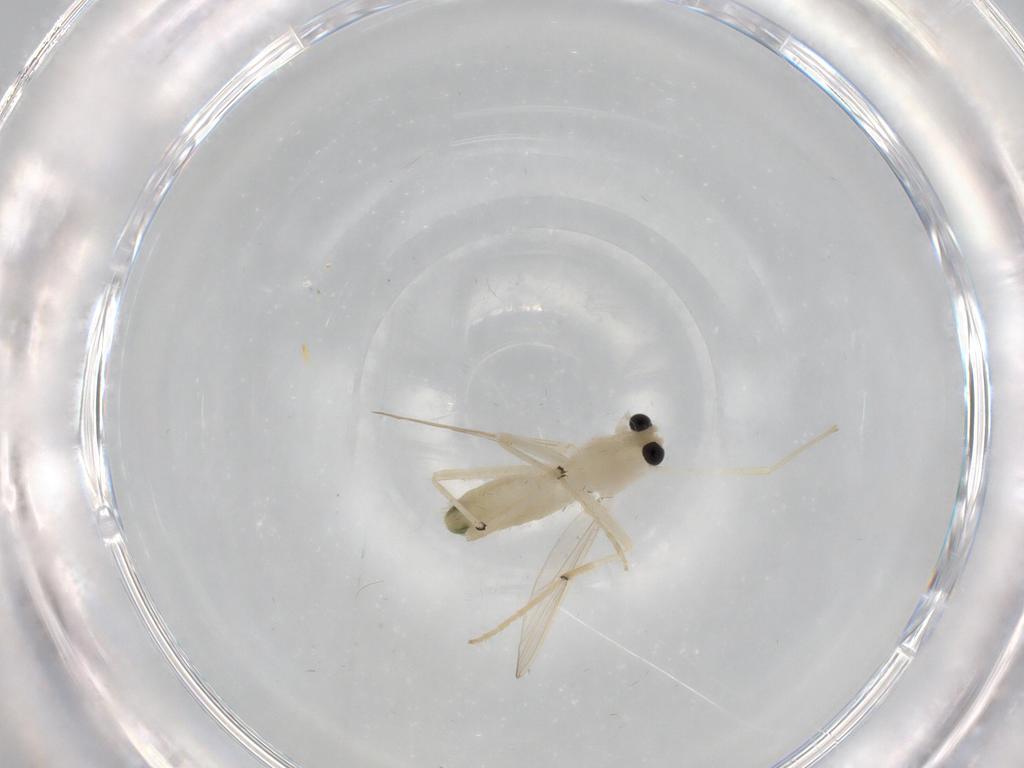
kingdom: Animalia
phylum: Arthropoda
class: Insecta
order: Diptera
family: Chironomidae
